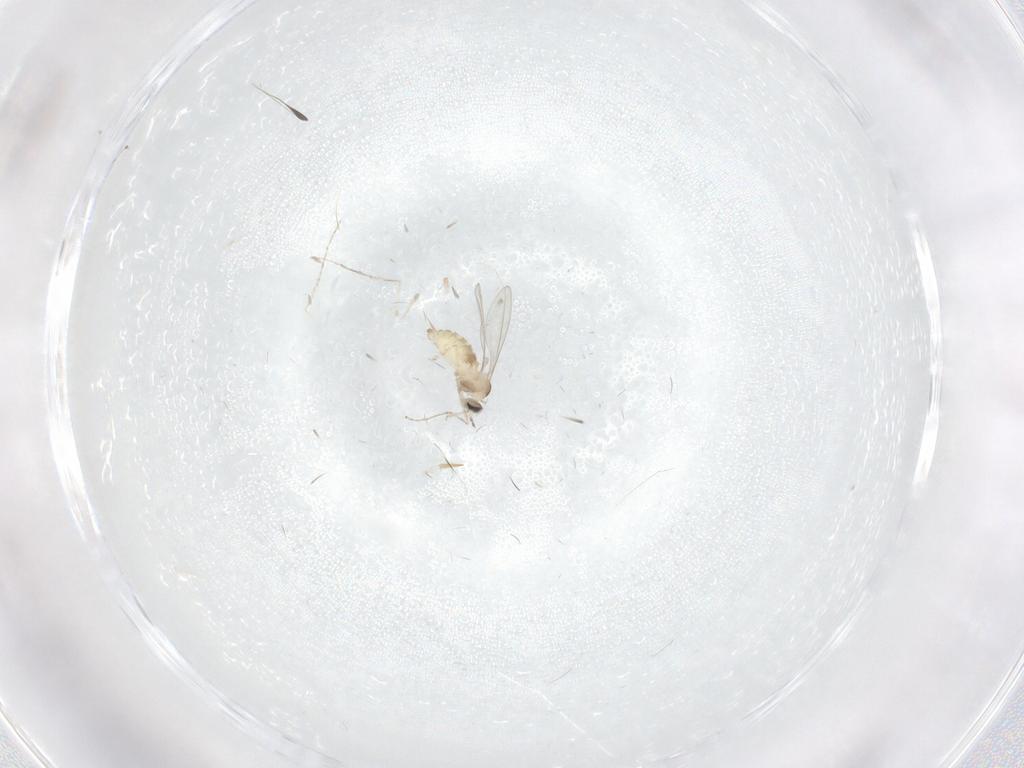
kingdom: Animalia
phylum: Arthropoda
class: Insecta
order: Diptera
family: Cecidomyiidae
